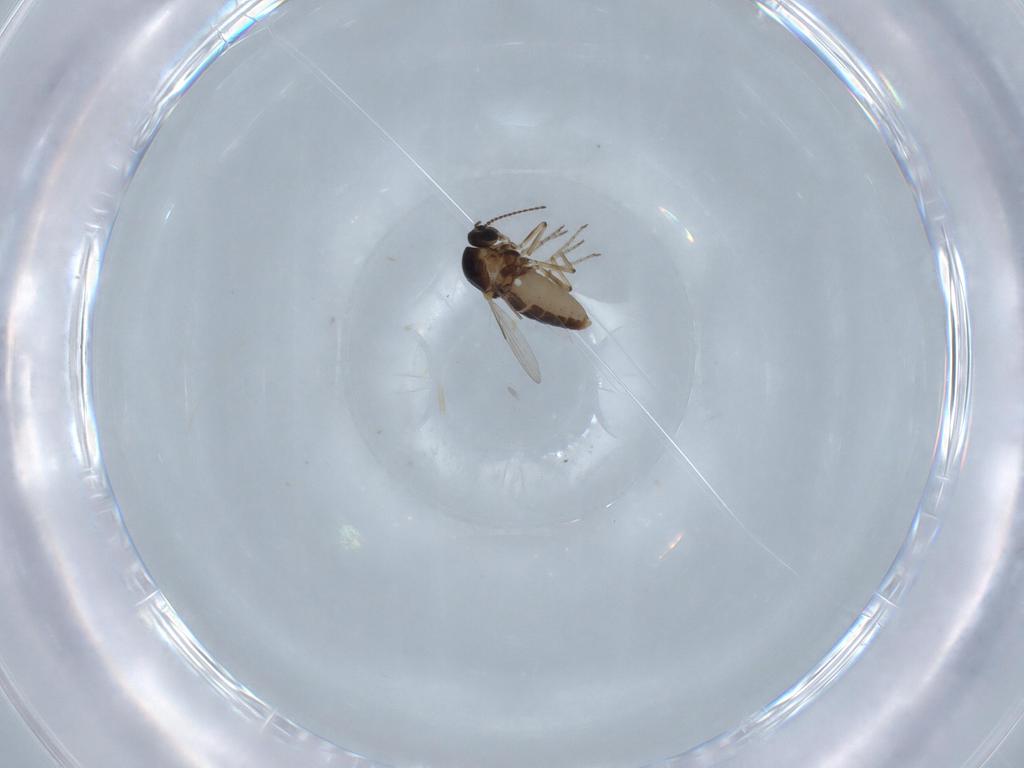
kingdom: Animalia
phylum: Arthropoda
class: Insecta
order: Diptera
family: Ceratopogonidae
